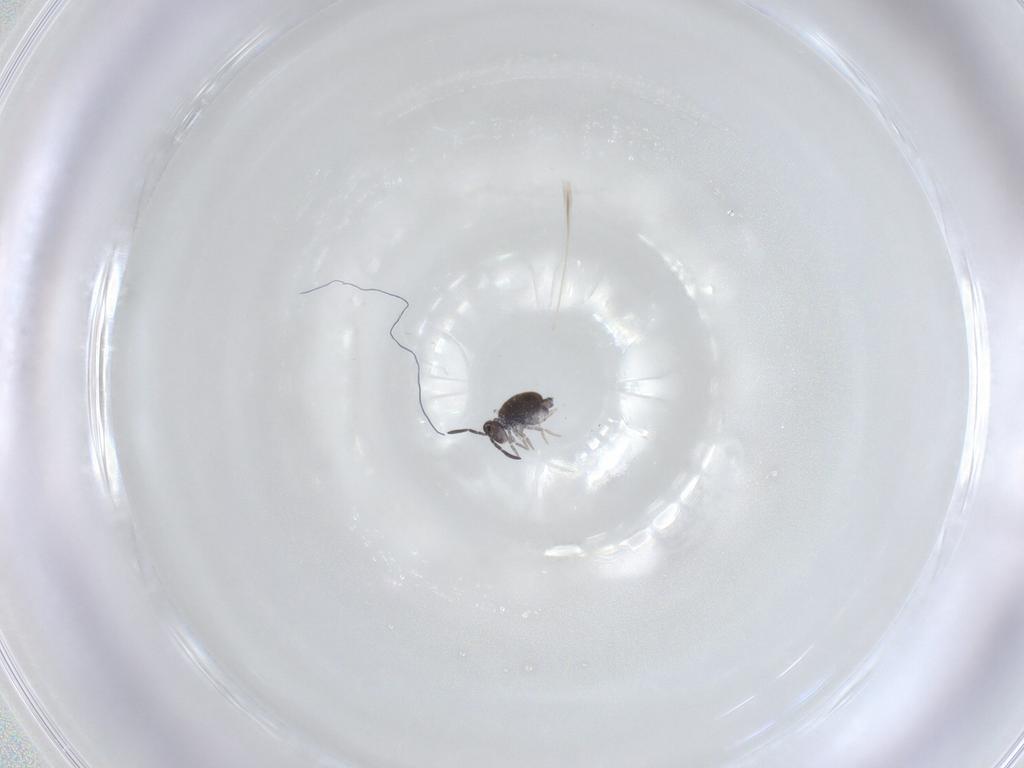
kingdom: Animalia
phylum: Arthropoda
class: Collembola
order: Symphypleona
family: Katiannidae
